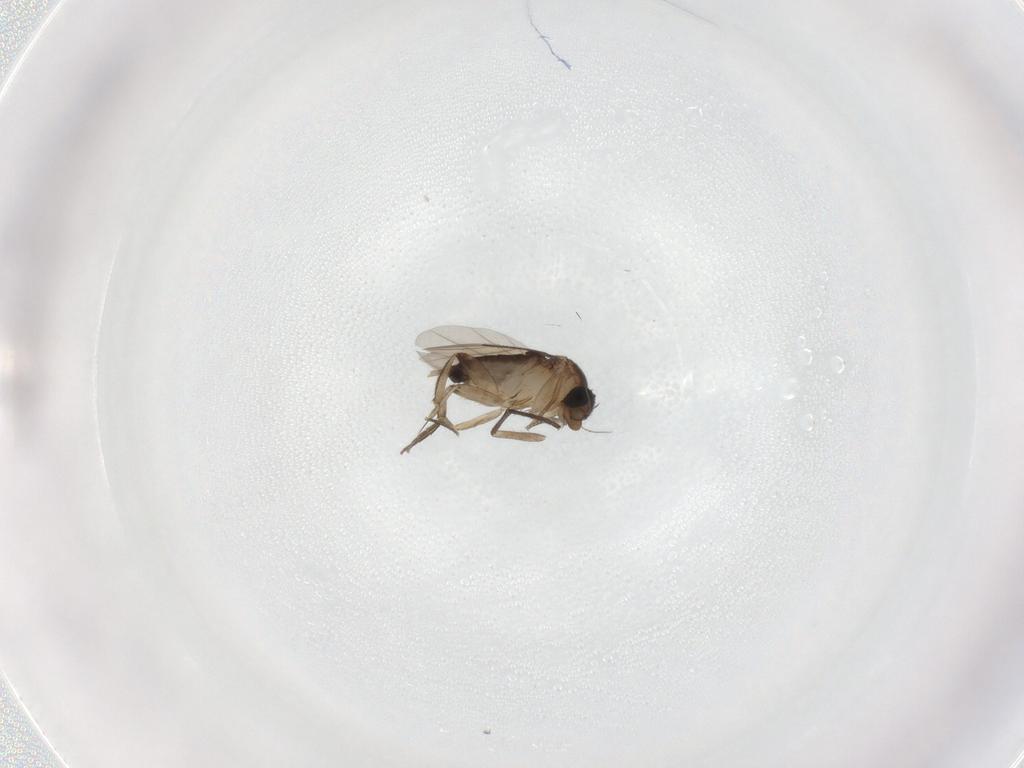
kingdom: Animalia
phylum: Arthropoda
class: Insecta
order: Diptera
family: Phoridae
